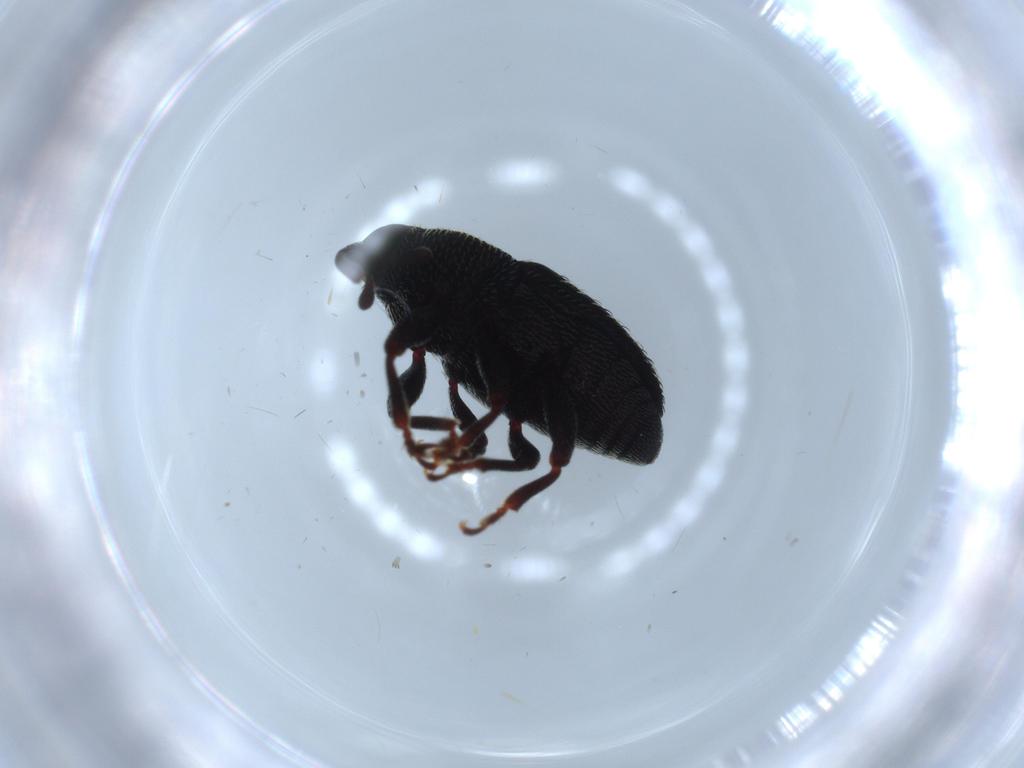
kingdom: Animalia
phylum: Arthropoda
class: Insecta
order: Coleoptera
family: Curculionidae
